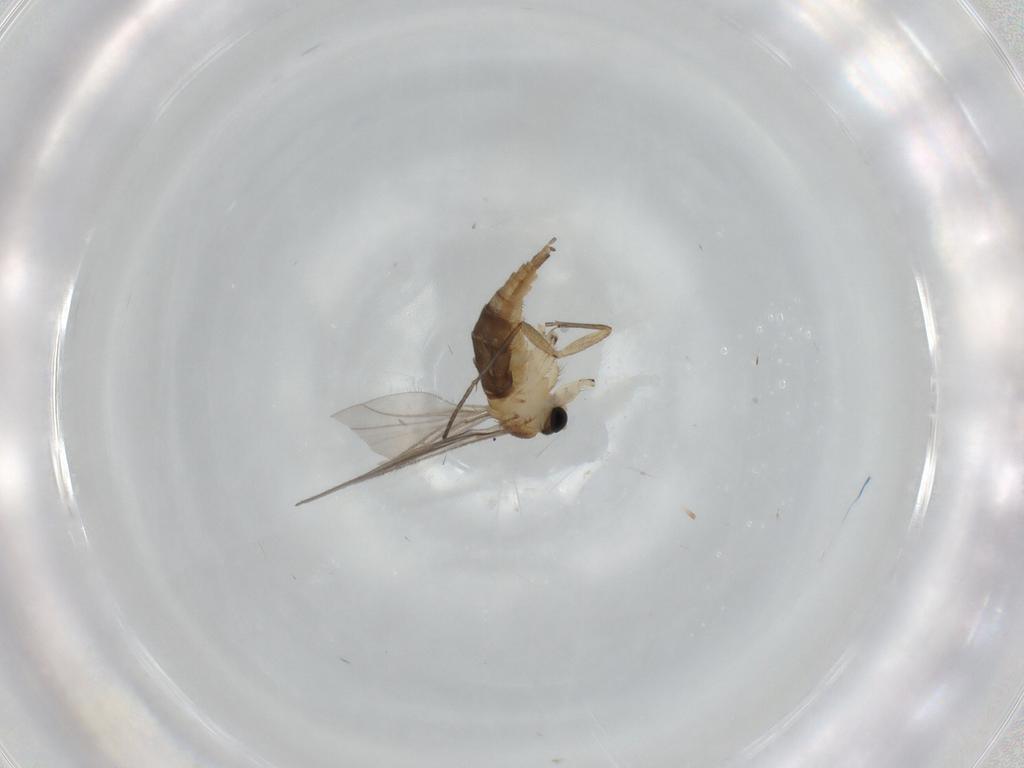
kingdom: Animalia
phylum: Arthropoda
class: Insecta
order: Diptera
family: Sciaridae
